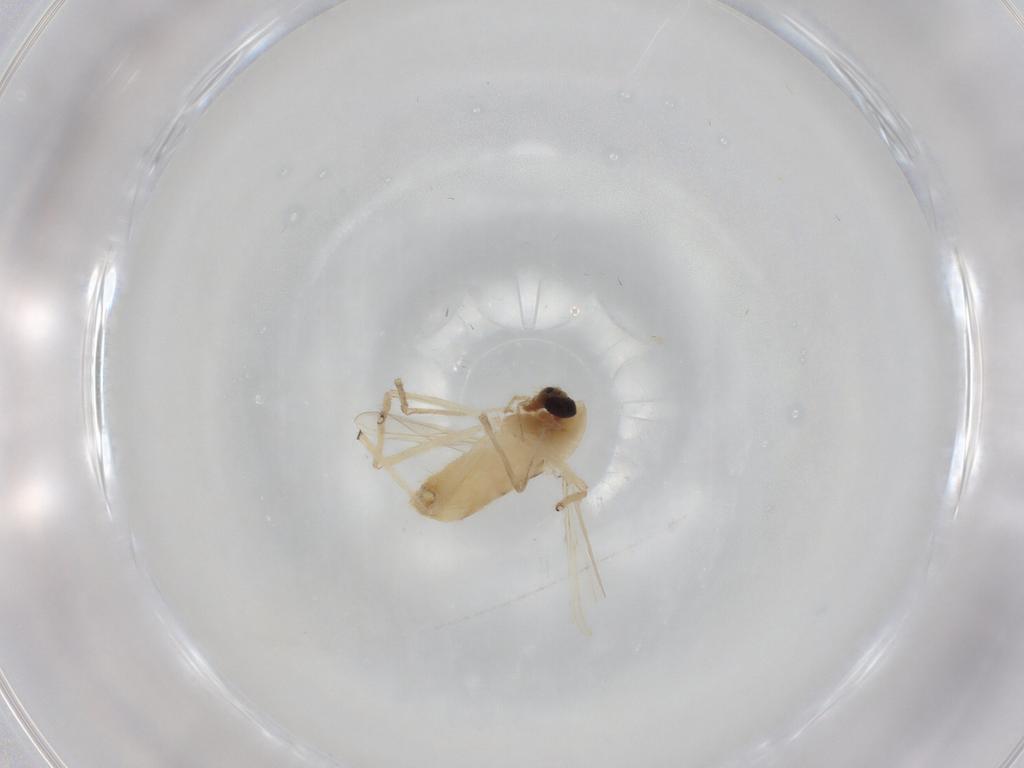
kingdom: Animalia
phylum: Arthropoda
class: Insecta
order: Diptera
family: Chironomidae
